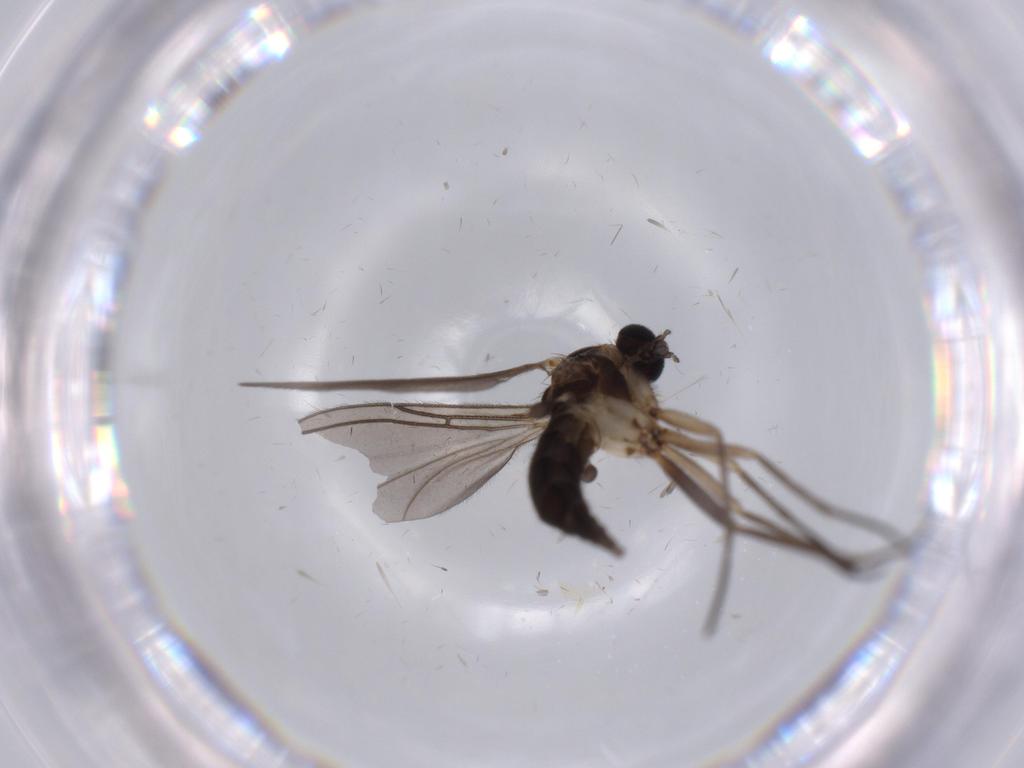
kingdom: Animalia
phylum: Arthropoda
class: Insecta
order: Diptera
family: Sciaridae
